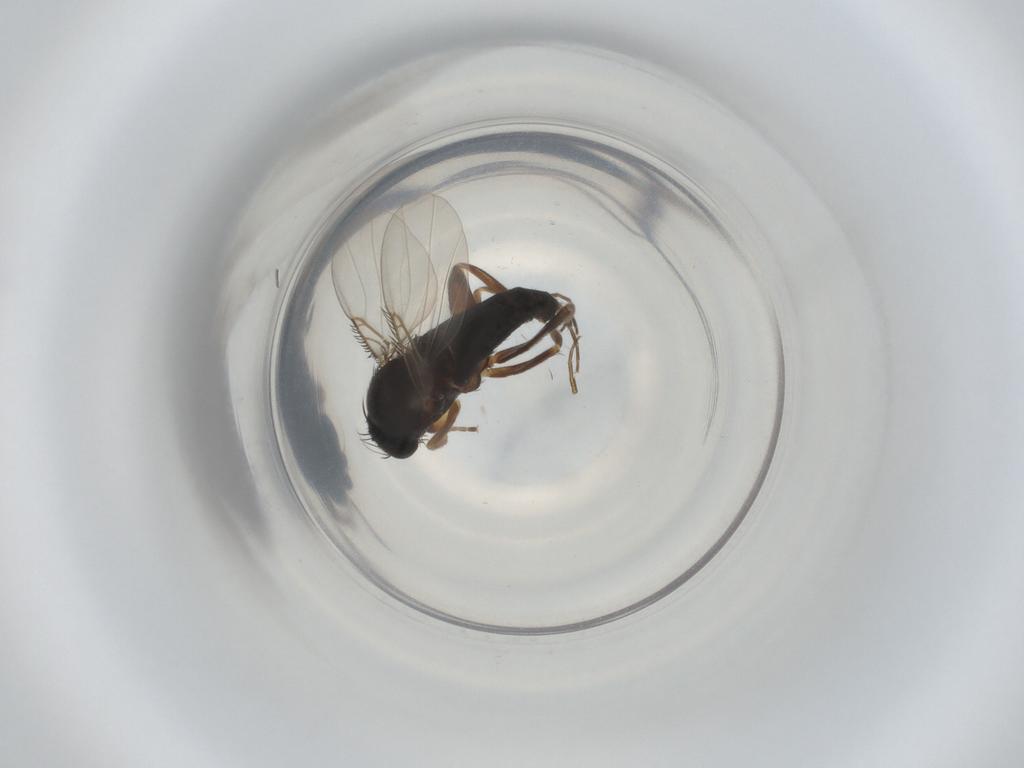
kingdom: Animalia
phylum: Arthropoda
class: Insecta
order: Diptera
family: Phoridae
